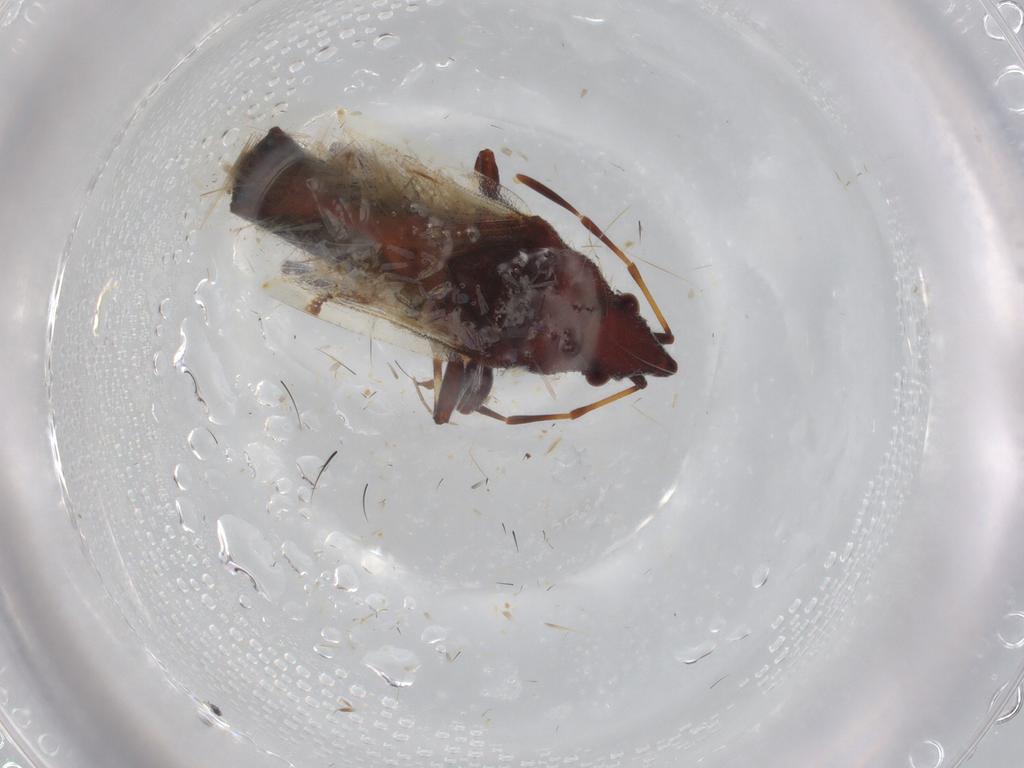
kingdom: Animalia
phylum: Arthropoda
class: Insecta
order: Hemiptera
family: Oxycarenidae
